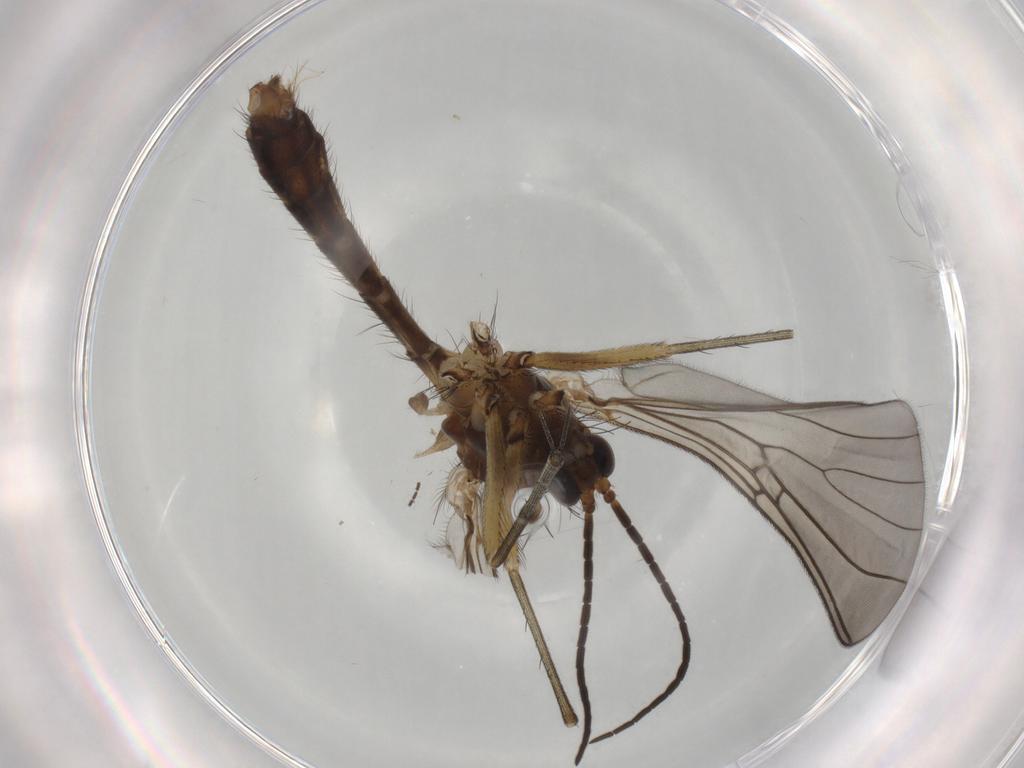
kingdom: Animalia
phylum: Arthropoda
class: Insecta
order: Diptera
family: Mycetophilidae
